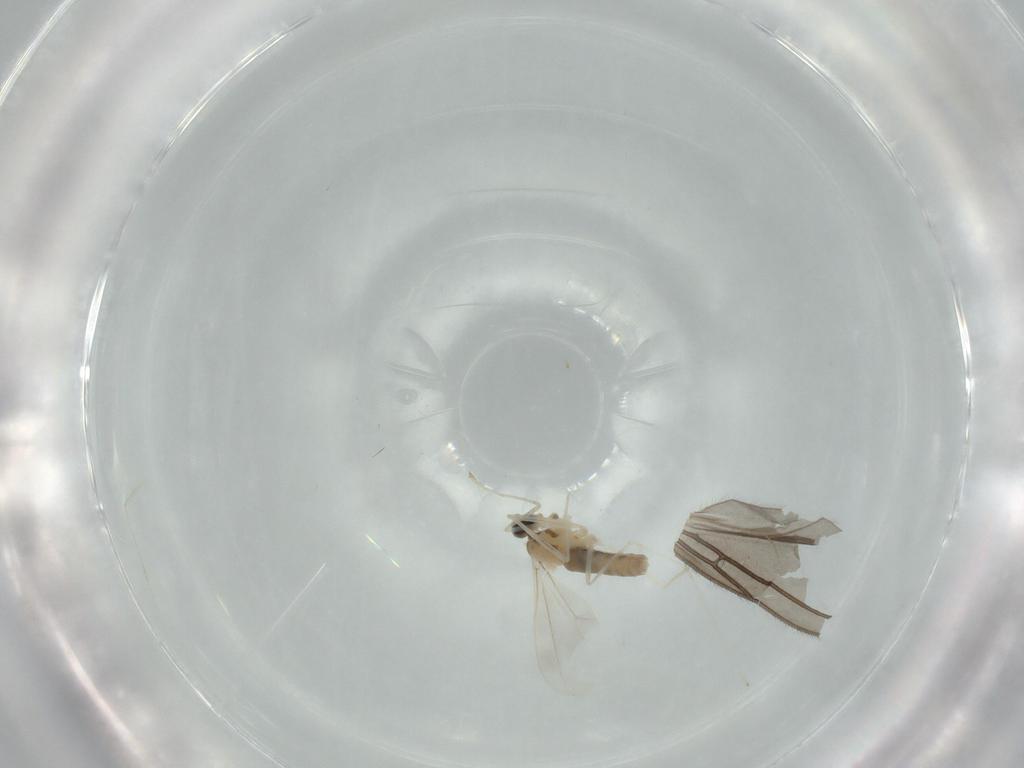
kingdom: Animalia
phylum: Arthropoda
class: Insecta
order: Diptera
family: Sciaridae
